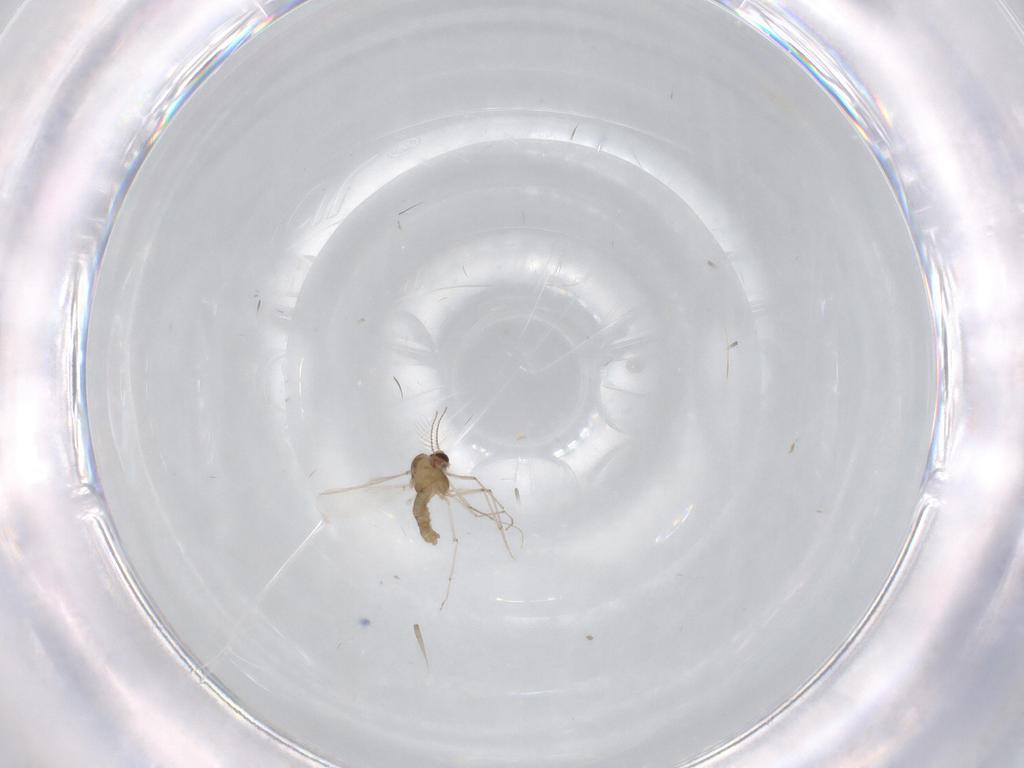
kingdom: Animalia
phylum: Arthropoda
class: Insecta
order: Diptera
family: Chironomidae
